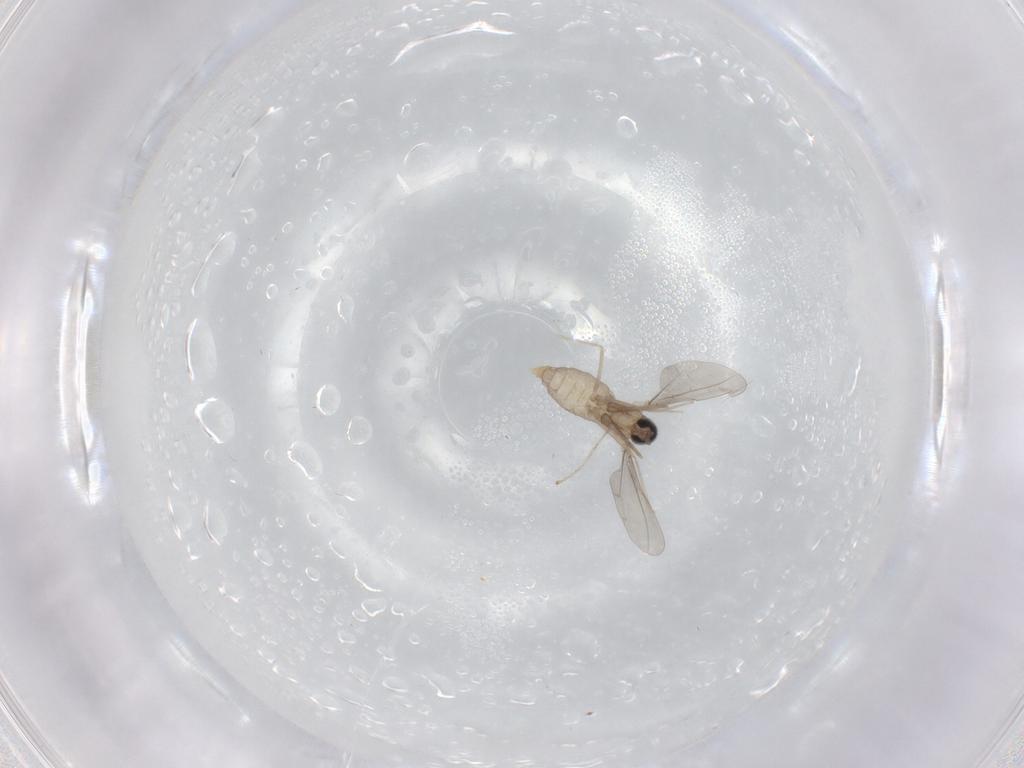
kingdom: Animalia
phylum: Arthropoda
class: Insecta
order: Diptera
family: Cecidomyiidae
